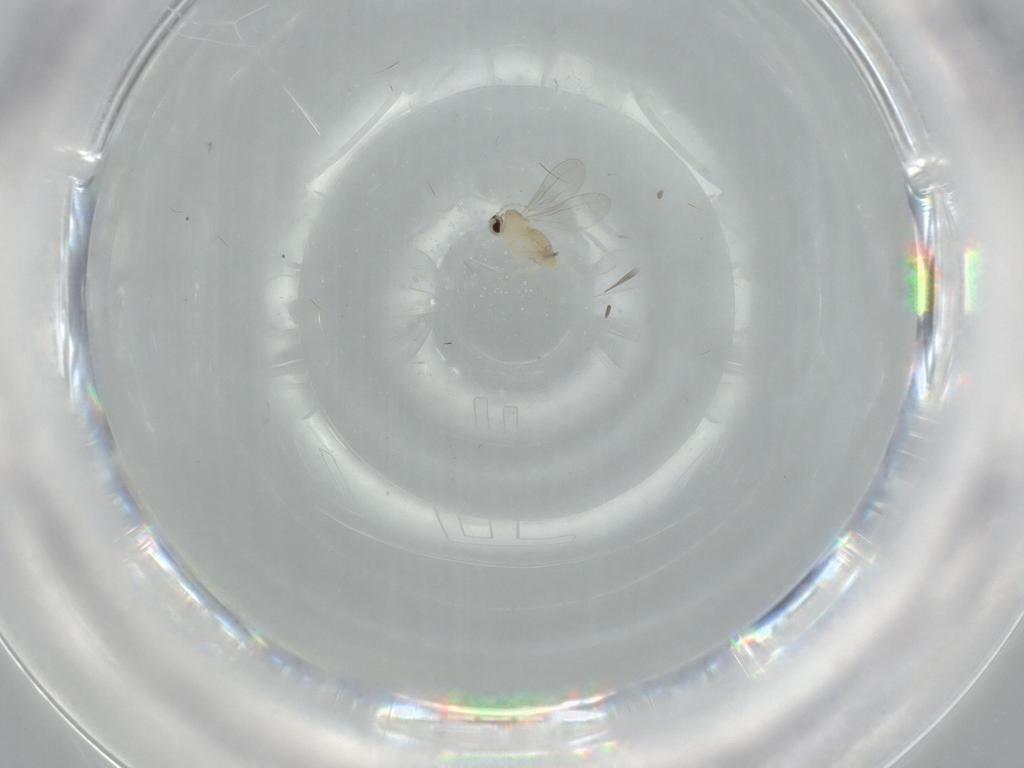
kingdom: Animalia
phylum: Arthropoda
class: Insecta
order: Diptera
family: Cecidomyiidae
